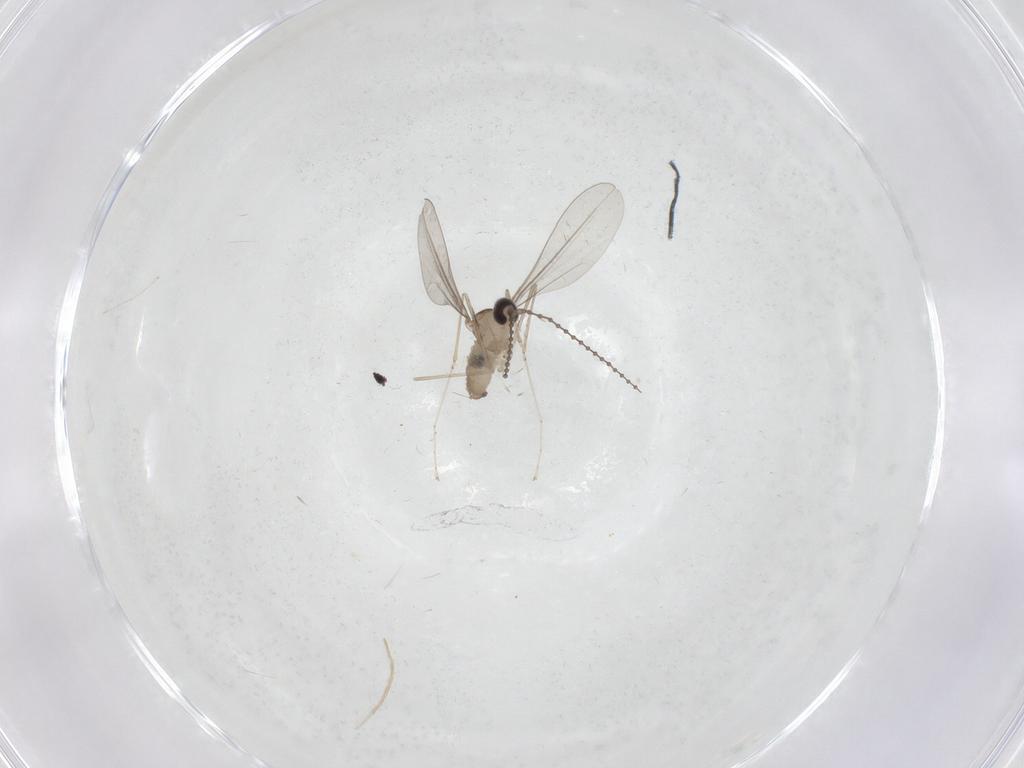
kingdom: Animalia
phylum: Arthropoda
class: Insecta
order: Diptera
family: Cecidomyiidae
